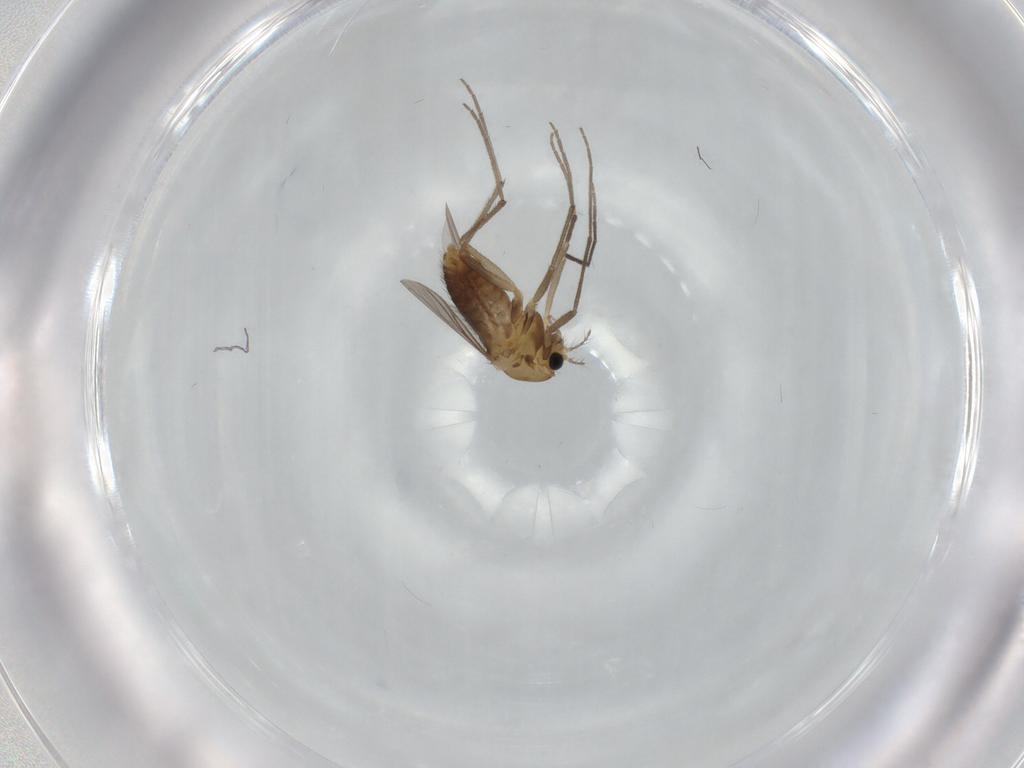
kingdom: Animalia
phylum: Arthropoda
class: Insecta
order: Diptera
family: Chironomidae
